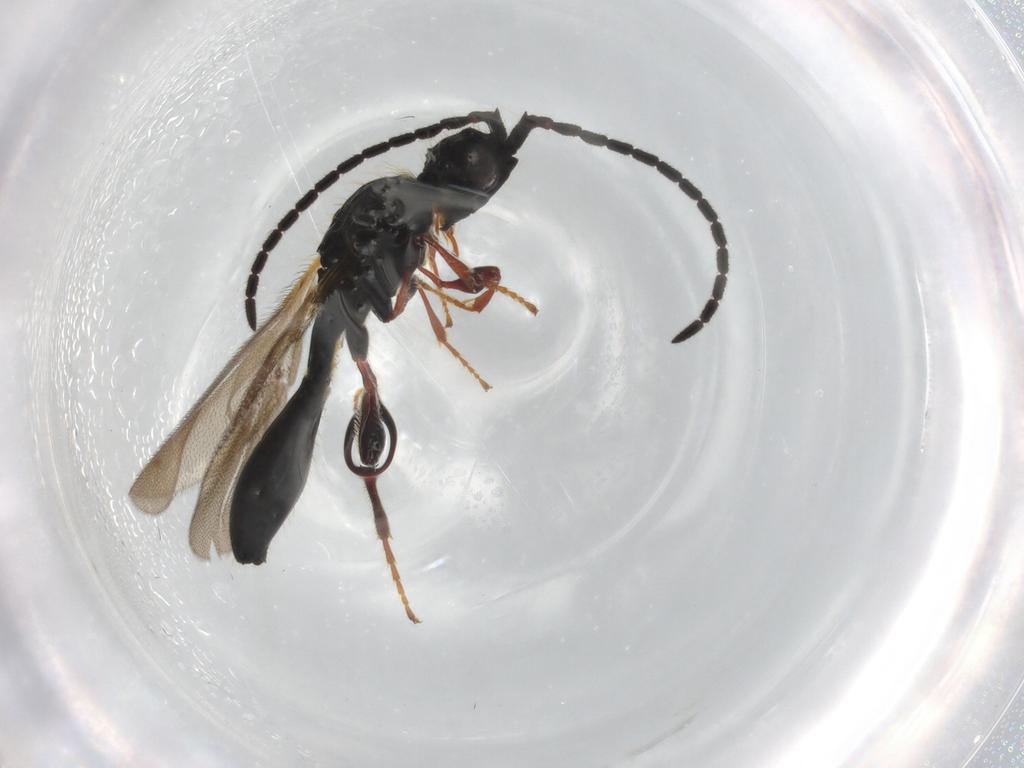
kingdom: Animalia
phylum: Arthropoda
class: Insecta
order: Hymenoptera
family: Diapriidae
